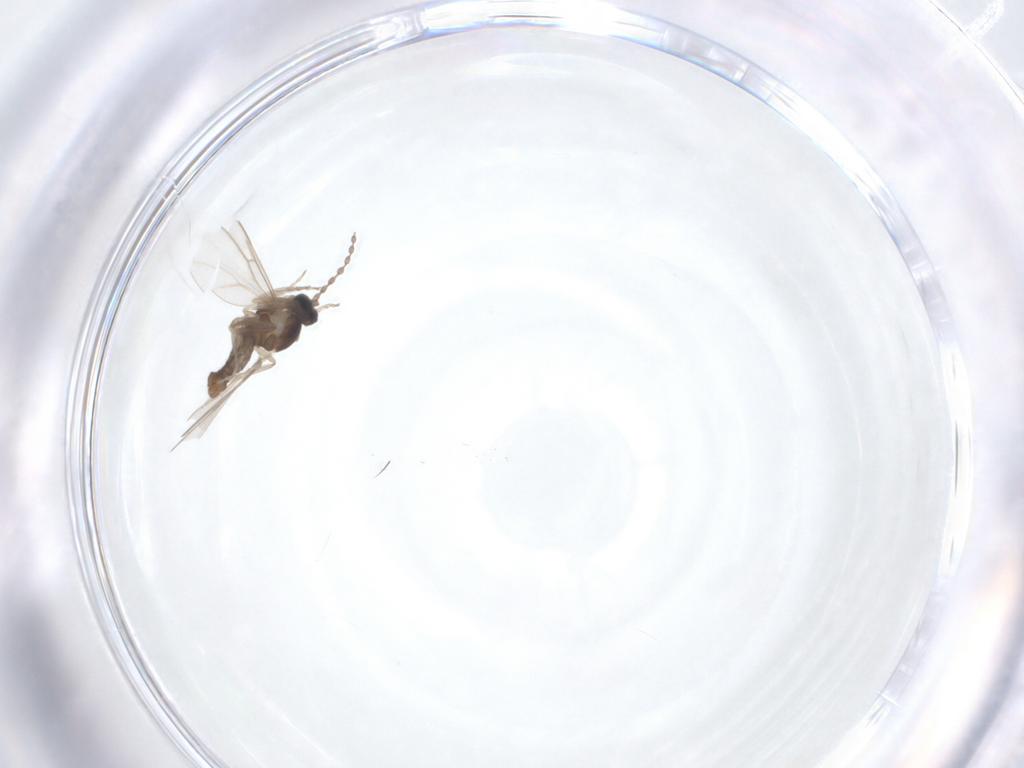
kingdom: Animalia
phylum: Arthropoda
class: Insecta
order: Diptera
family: Cecidomyiidae
